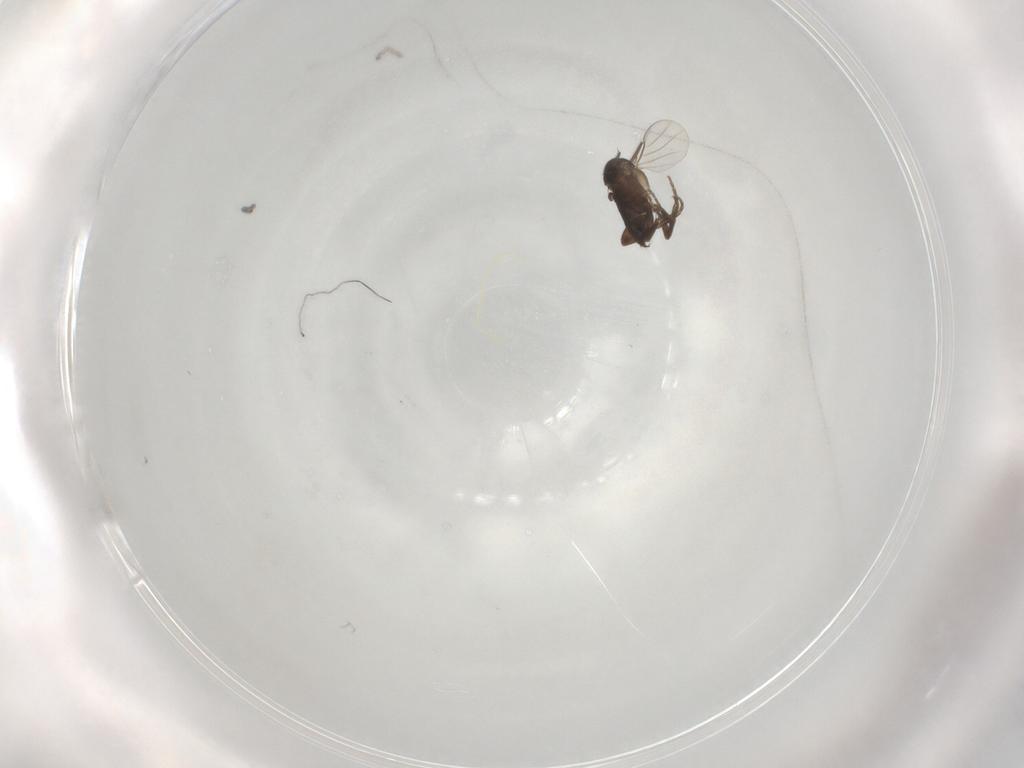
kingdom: Animalia
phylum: Arthropoda
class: Insecta
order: Diptera
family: Phoridae
